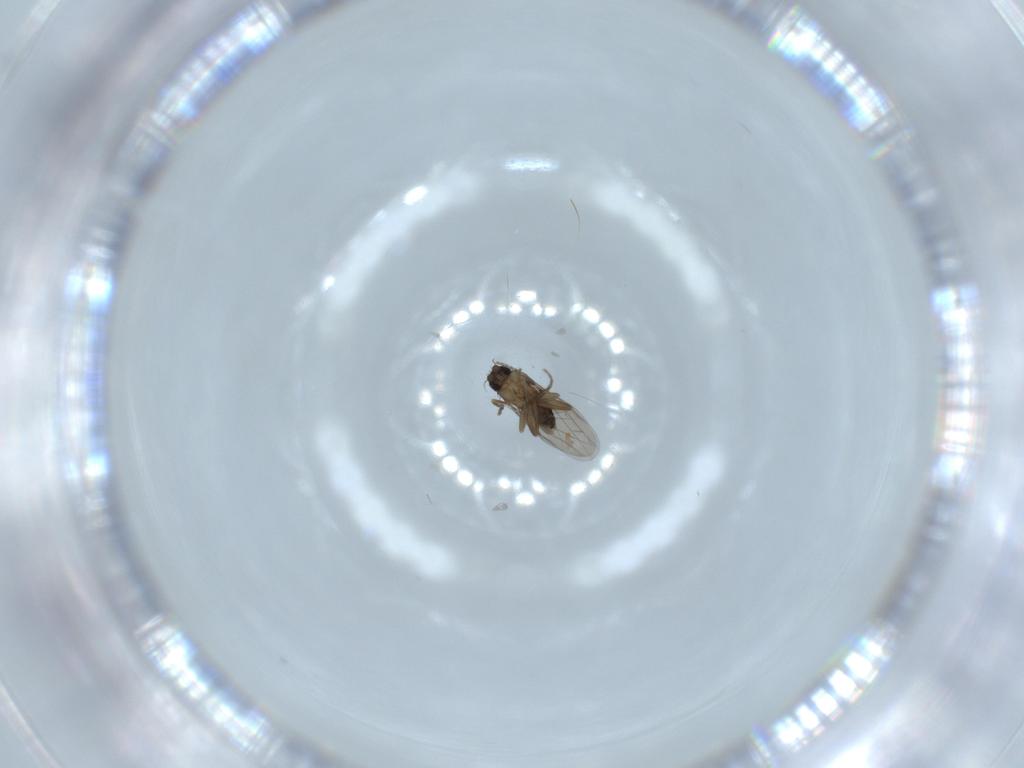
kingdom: Animalia
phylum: Arthropoda
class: Insecta
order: Diptera
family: Phoridae
